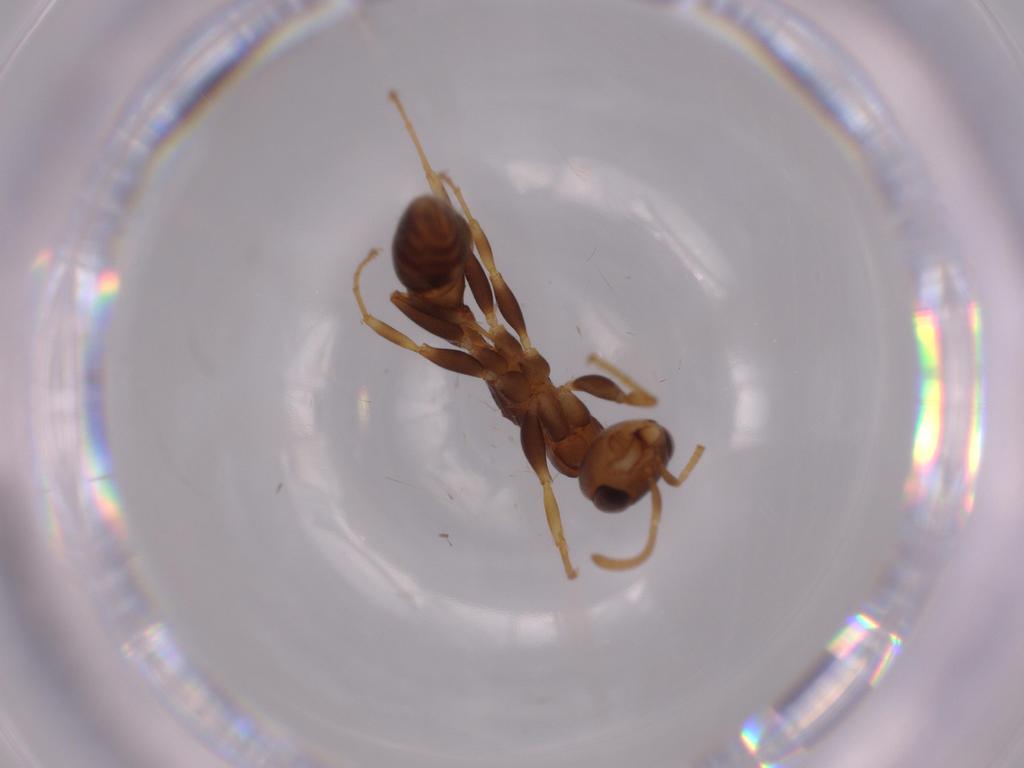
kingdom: Animalia
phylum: Arthropoda
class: Insecta
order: Hymenoptera
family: Formicidae
